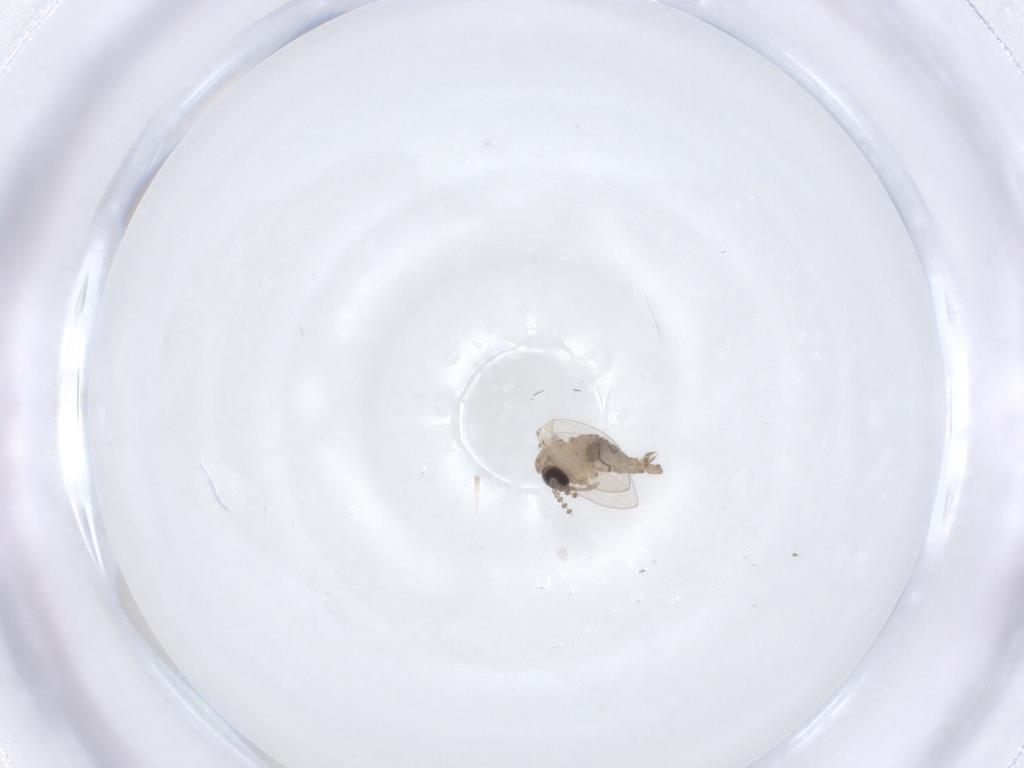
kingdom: Animalia
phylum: Arthropoda
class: Insecta
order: Diptera
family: Psychodidae
